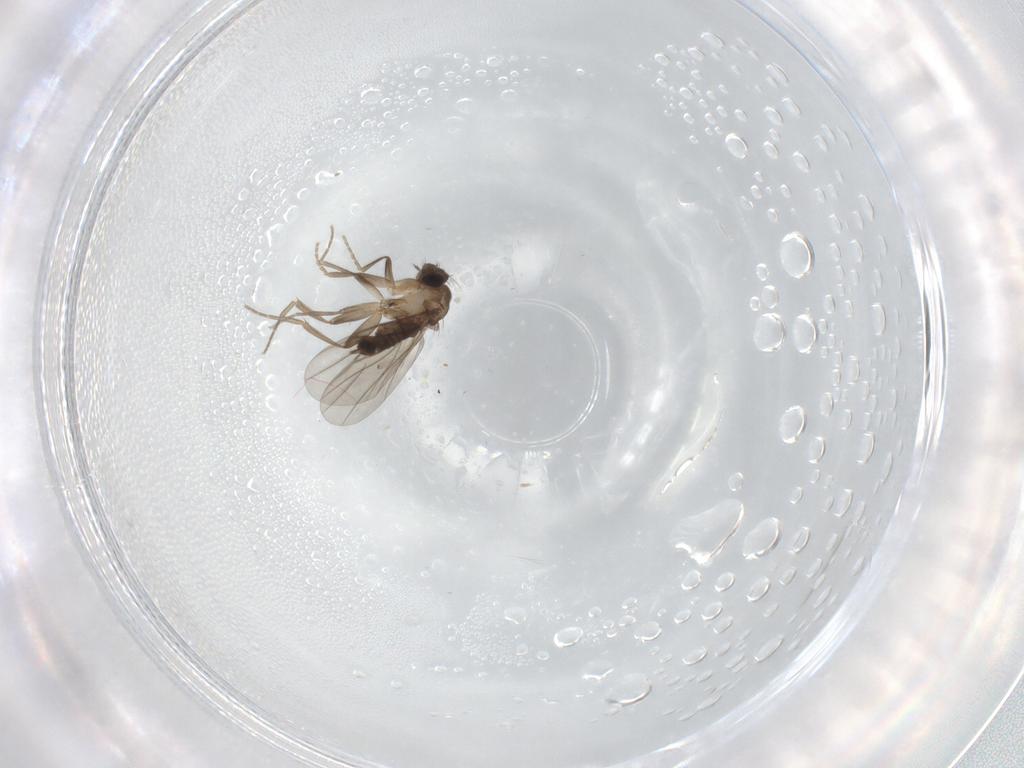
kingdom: Animalia
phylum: Arthropoda
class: Insecta
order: Diptera
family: Phoridae
